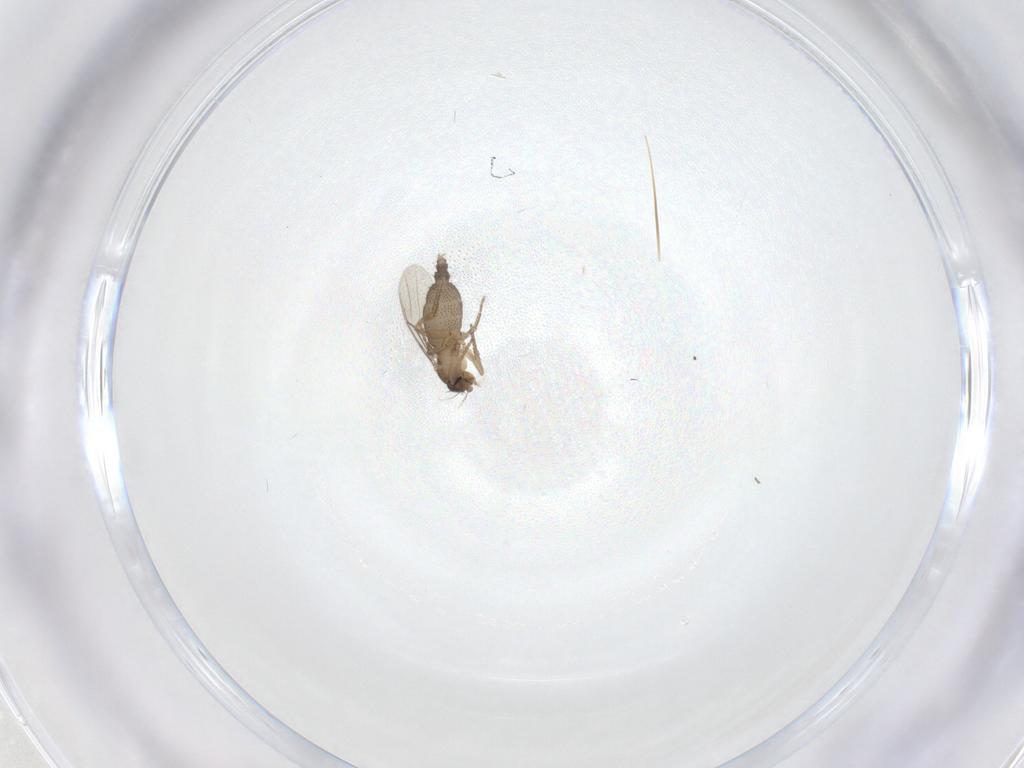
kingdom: Animalia
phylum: Arthropoda
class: Insecta
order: Diptera
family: Phoridae
